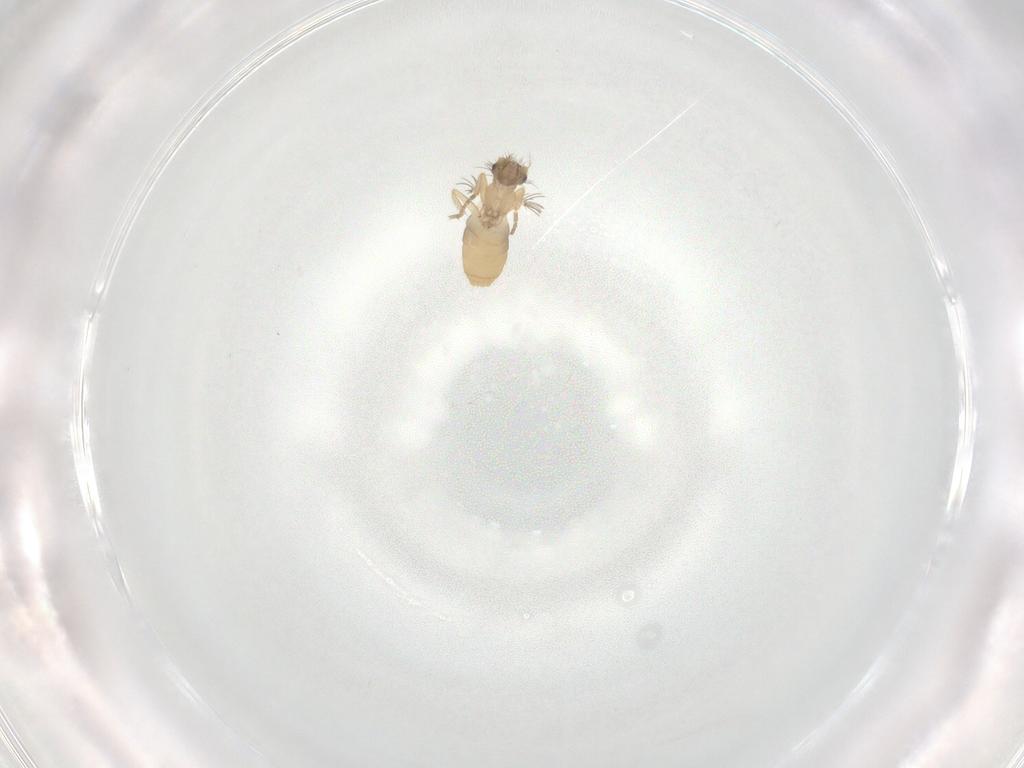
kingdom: Animalia
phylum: Arthropoda
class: Insecta
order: Diptera
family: Phoridae
